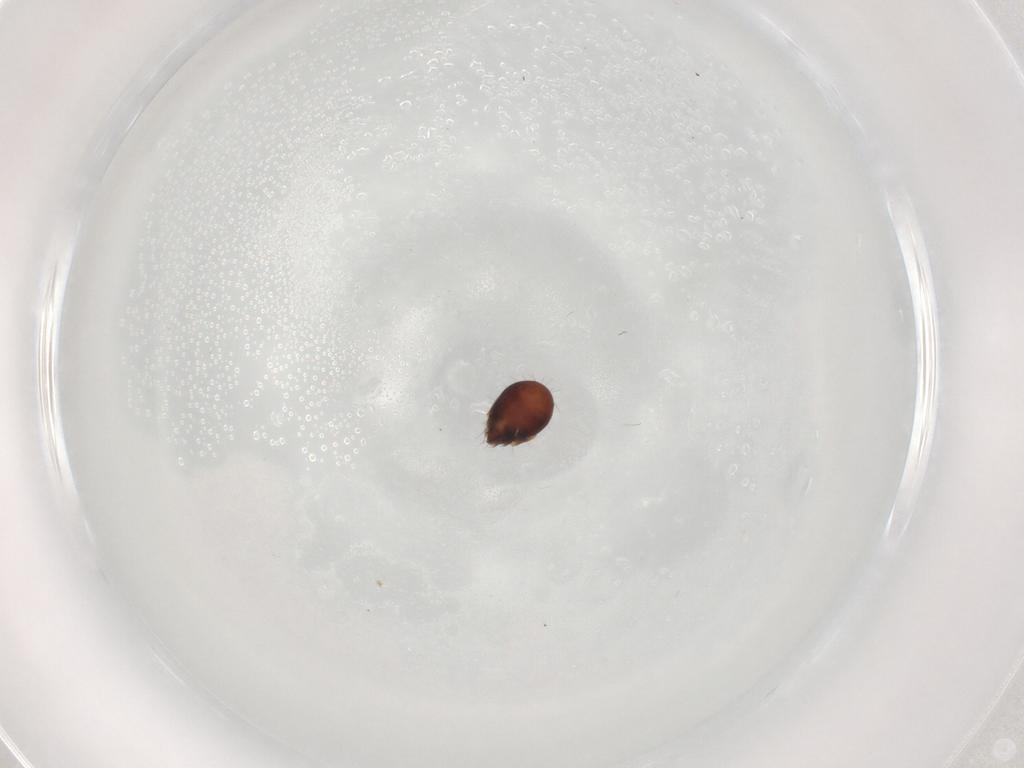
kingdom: Animalia
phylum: Arthropoda
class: Arachnida
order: Sarcoptiformes
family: Humerobatidae
